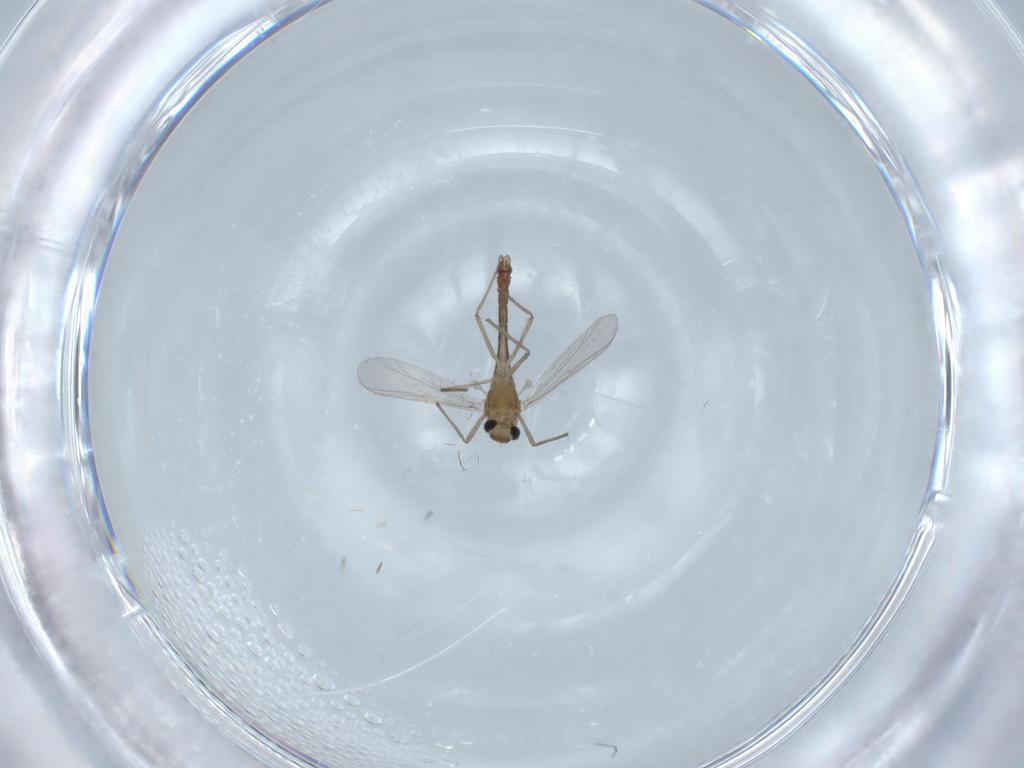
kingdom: Animalia
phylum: Arthropoda
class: Insecta
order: Diptera
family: Chironomidae
